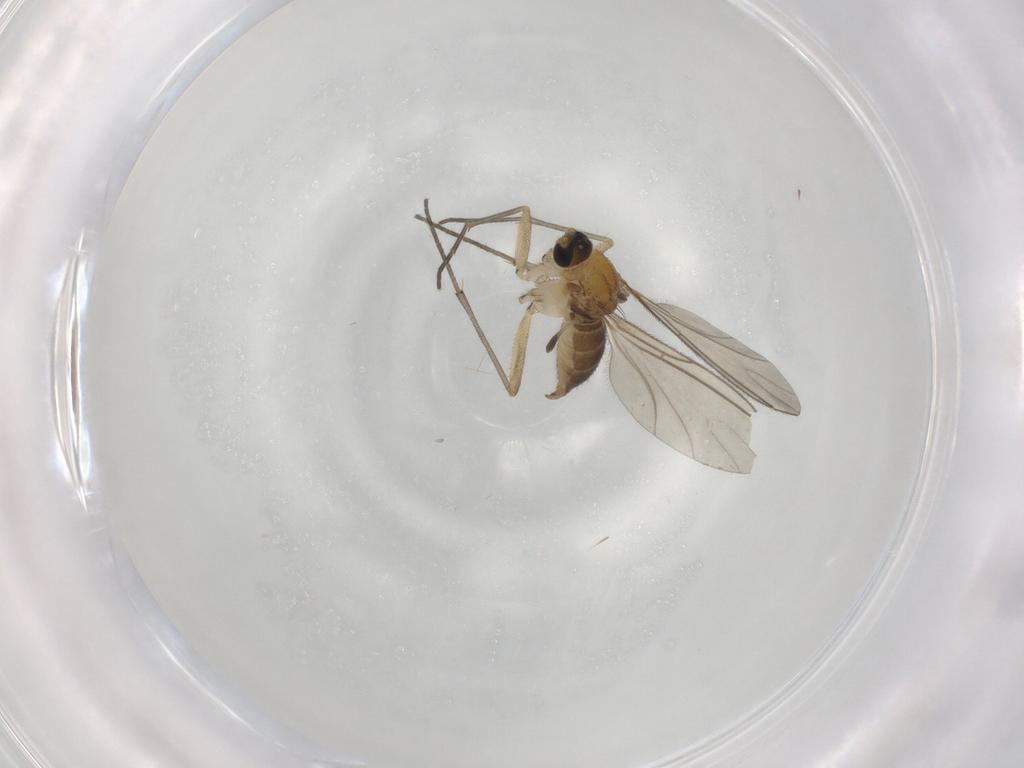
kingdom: Animalia
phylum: Arthropoda
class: Insecta
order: Diptera
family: Sciaridae
